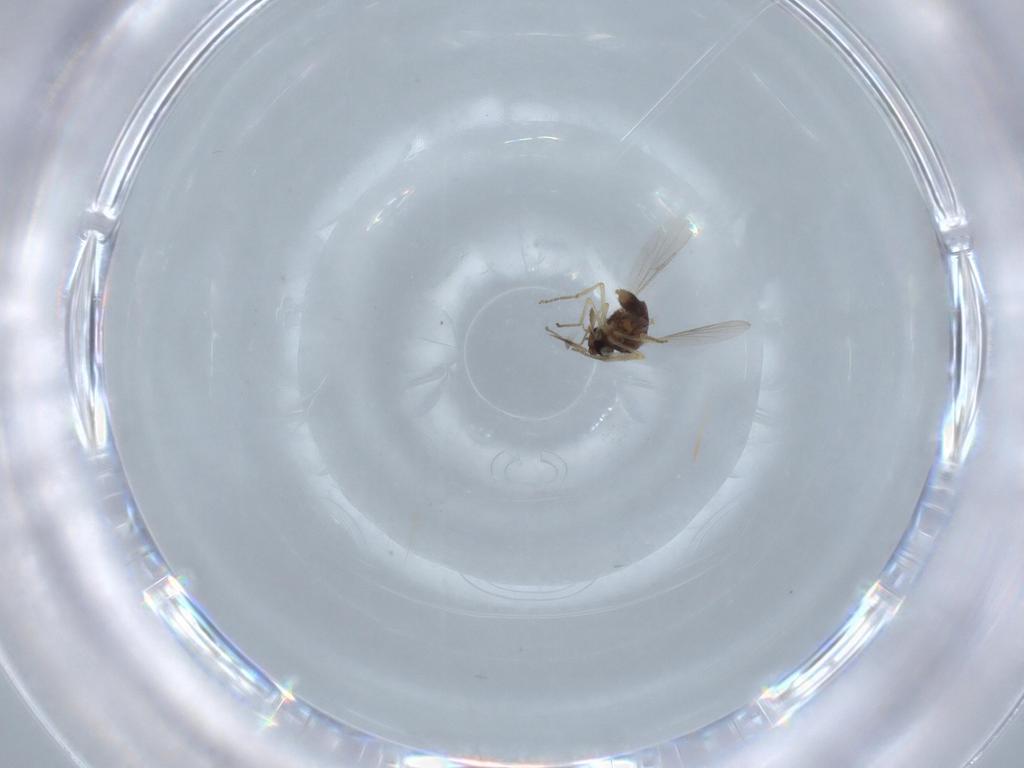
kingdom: Animalia
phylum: Arthropoda
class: Insecta
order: Diptera
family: Ceratopogonidae
